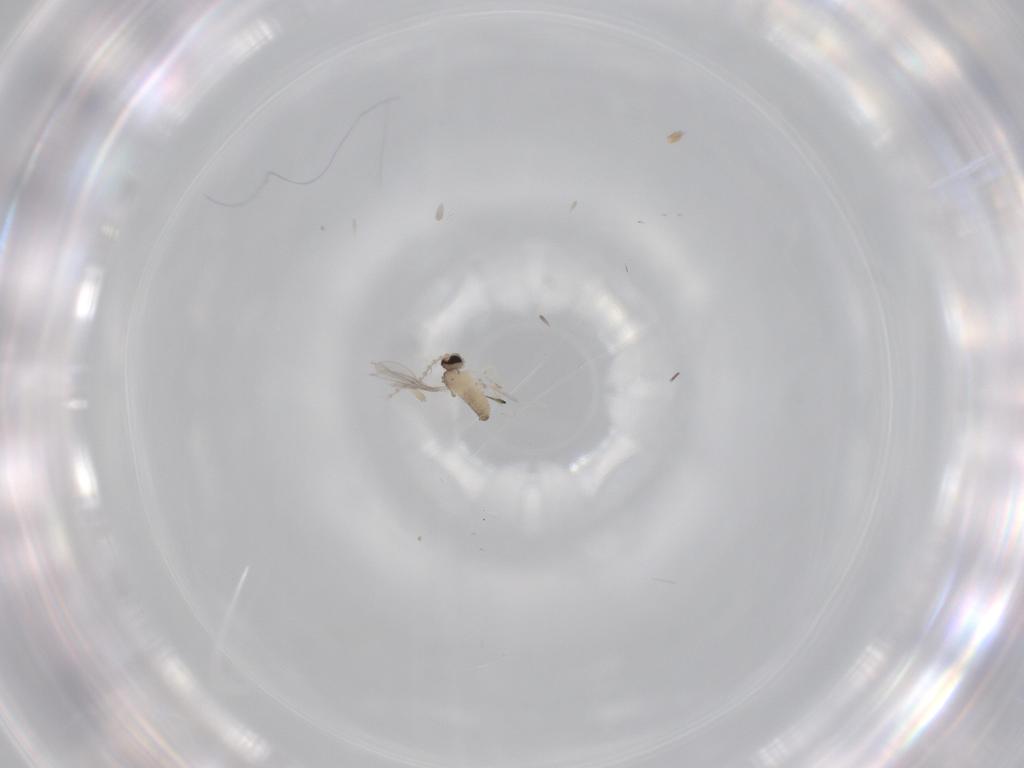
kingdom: Animalia
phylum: Arthropoda
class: Insecta
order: Diptera
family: Cecidomyiidae
